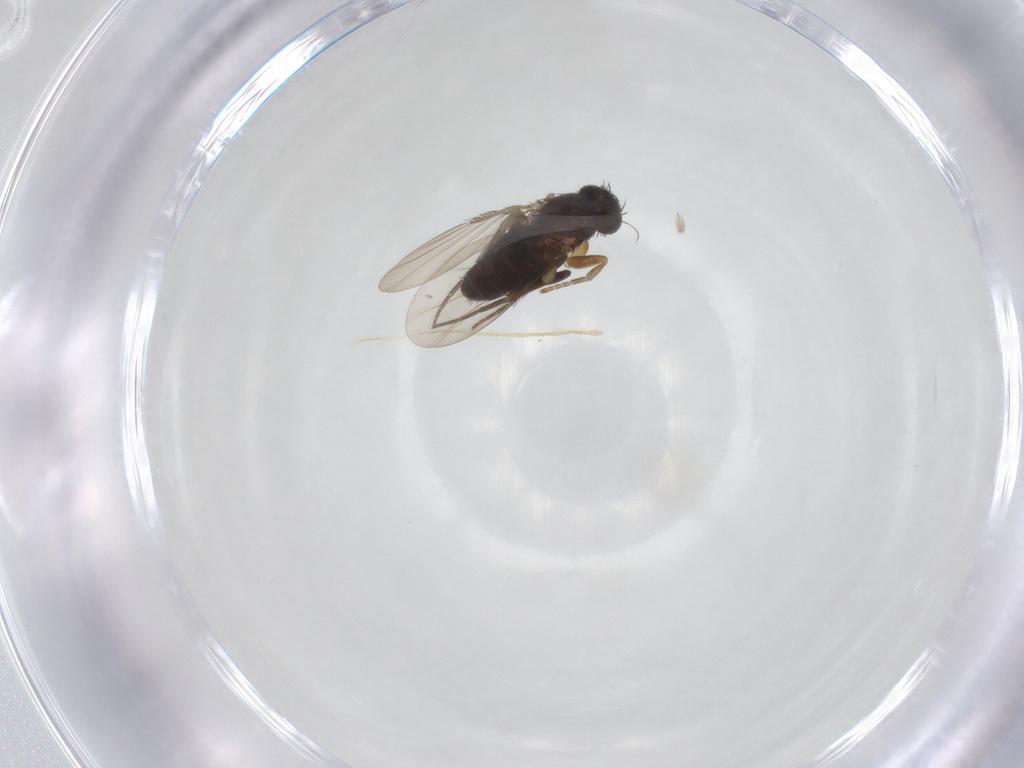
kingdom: Animalia
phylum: Arthropoda
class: Insecta
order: Diptera
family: Phoridae
